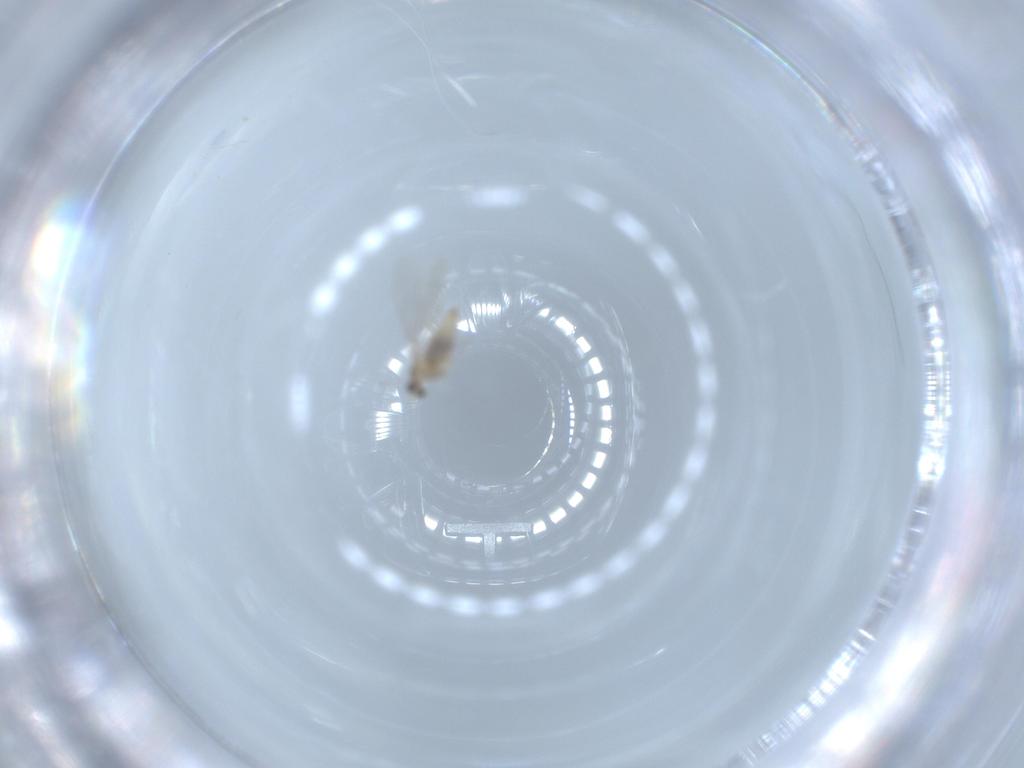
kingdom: Animalia
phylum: Arthropoda
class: Insecta
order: Diptera
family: Cecidomyiidae
